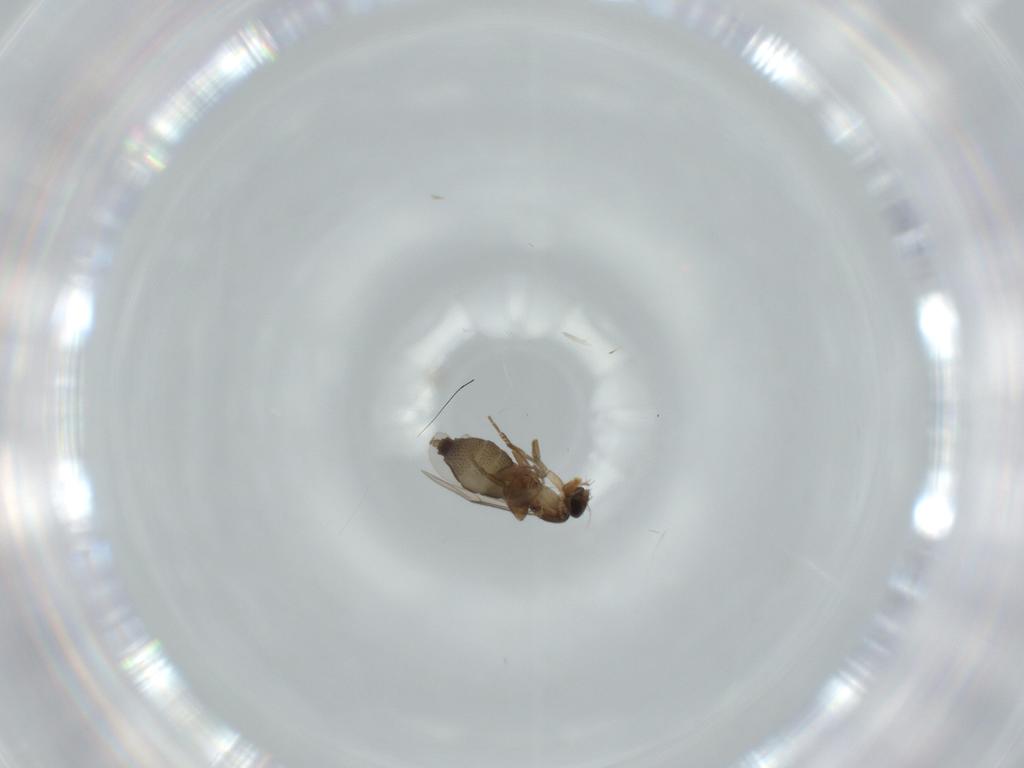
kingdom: Animalia
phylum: Arthropoda
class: Insecta
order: Diptera
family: Phoridae
